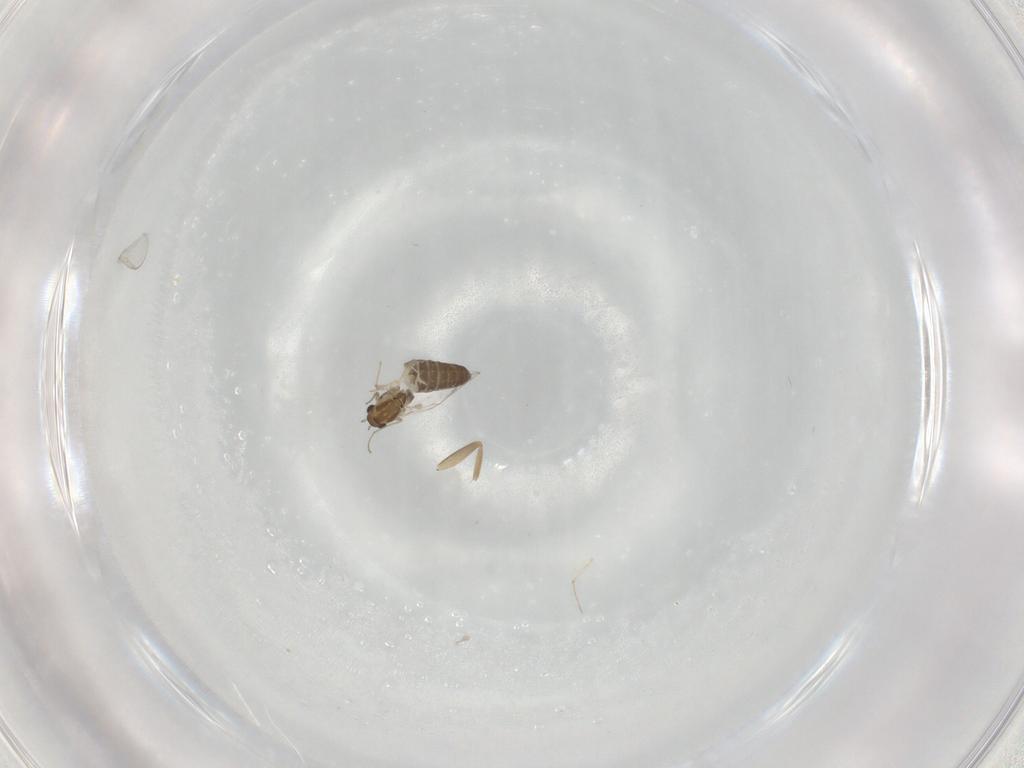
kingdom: Animalia
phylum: Arthropoda
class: Insecta
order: Diptera
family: Chironomidae
